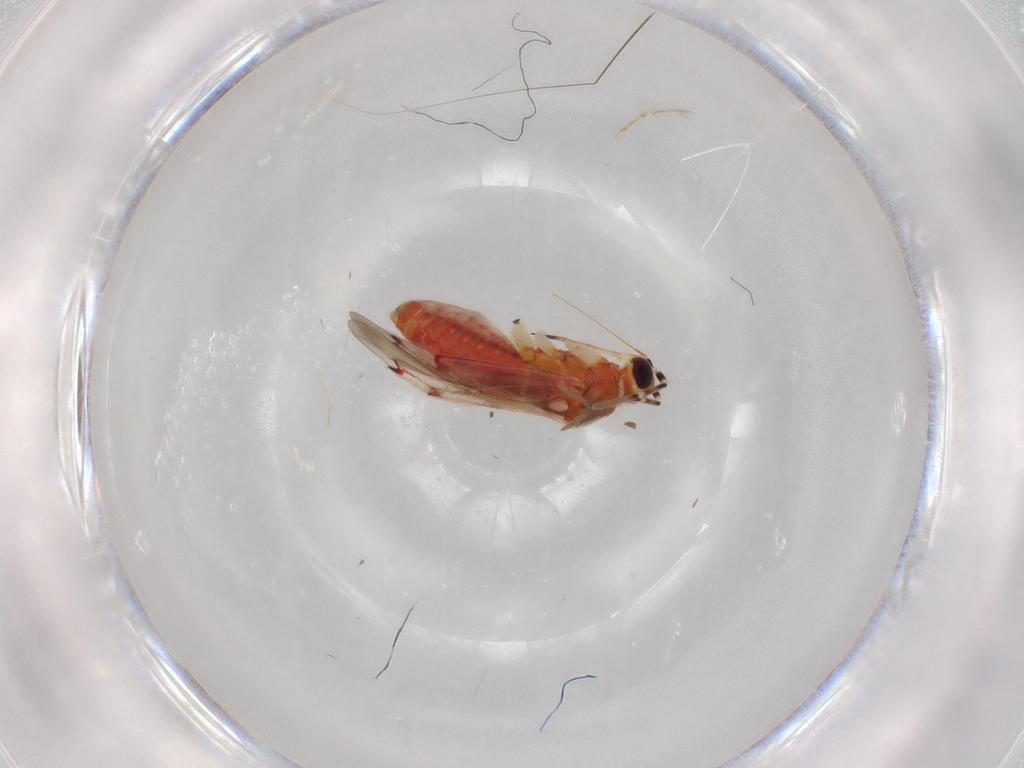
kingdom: Animalia
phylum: Arthropoda
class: Insecta
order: Hemiptera
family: Miridae
